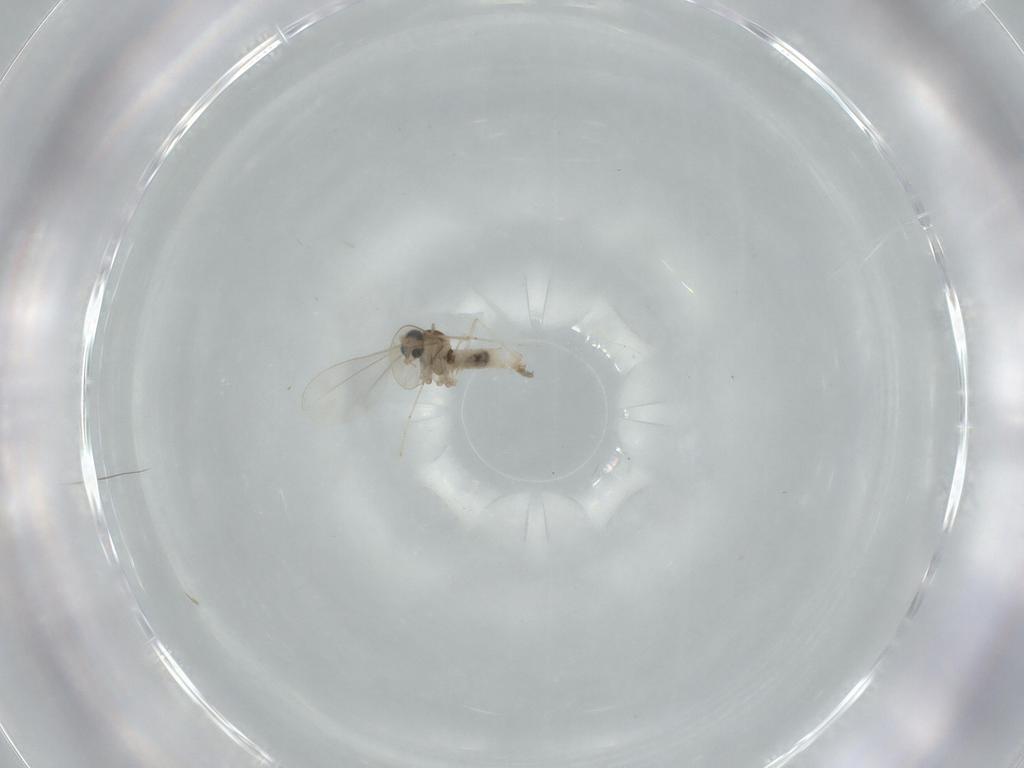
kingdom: Animalia
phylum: Arthropoda
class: Insecta
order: Diptera
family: Cecidomyiidae
